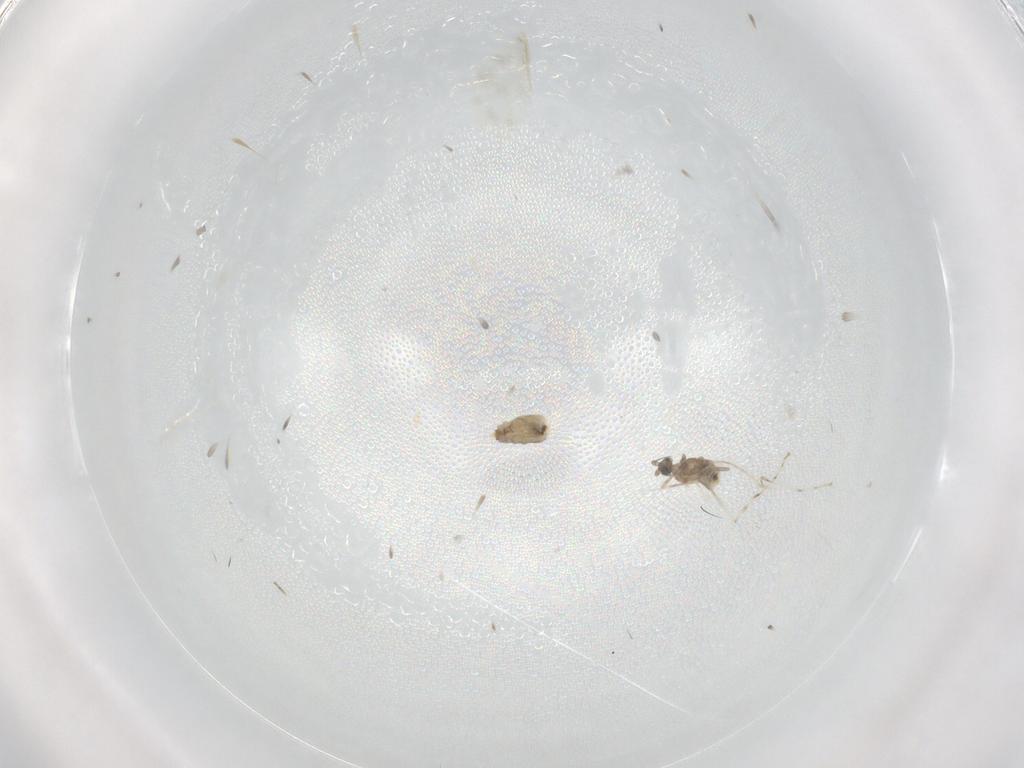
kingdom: Animalia
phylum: Arthropoda
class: Insecta
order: Diptera
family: Cecidomyiidae
